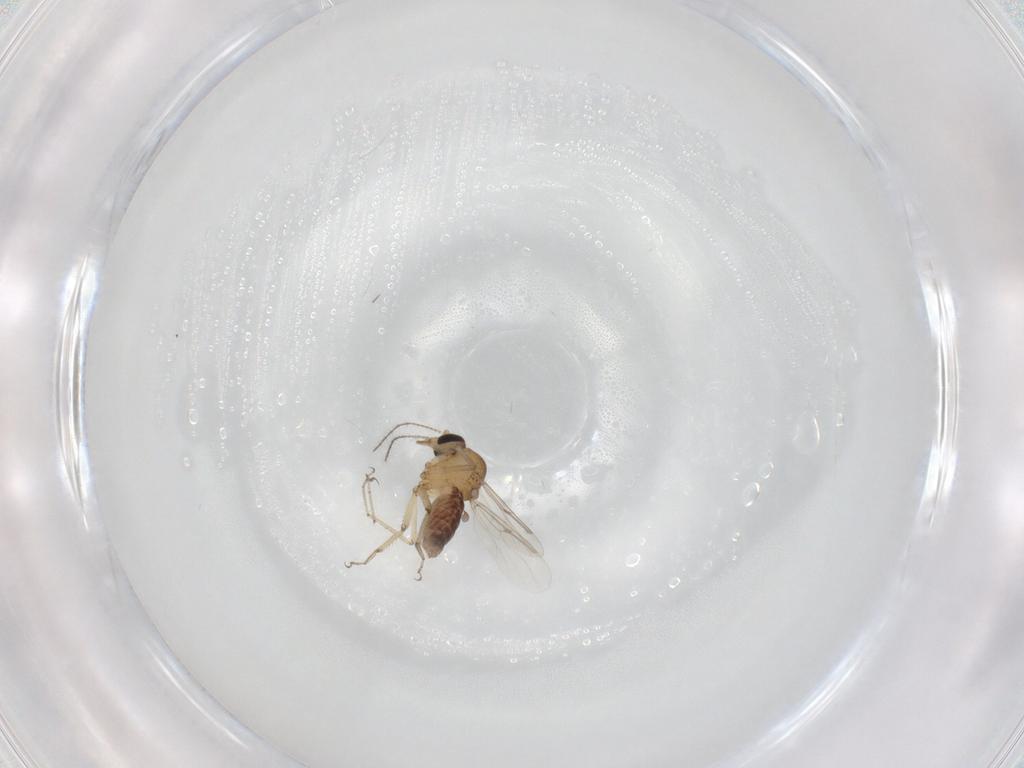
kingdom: Animalia
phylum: Arthropoda
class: Insecta
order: Diptera
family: Ceratopogonidae
